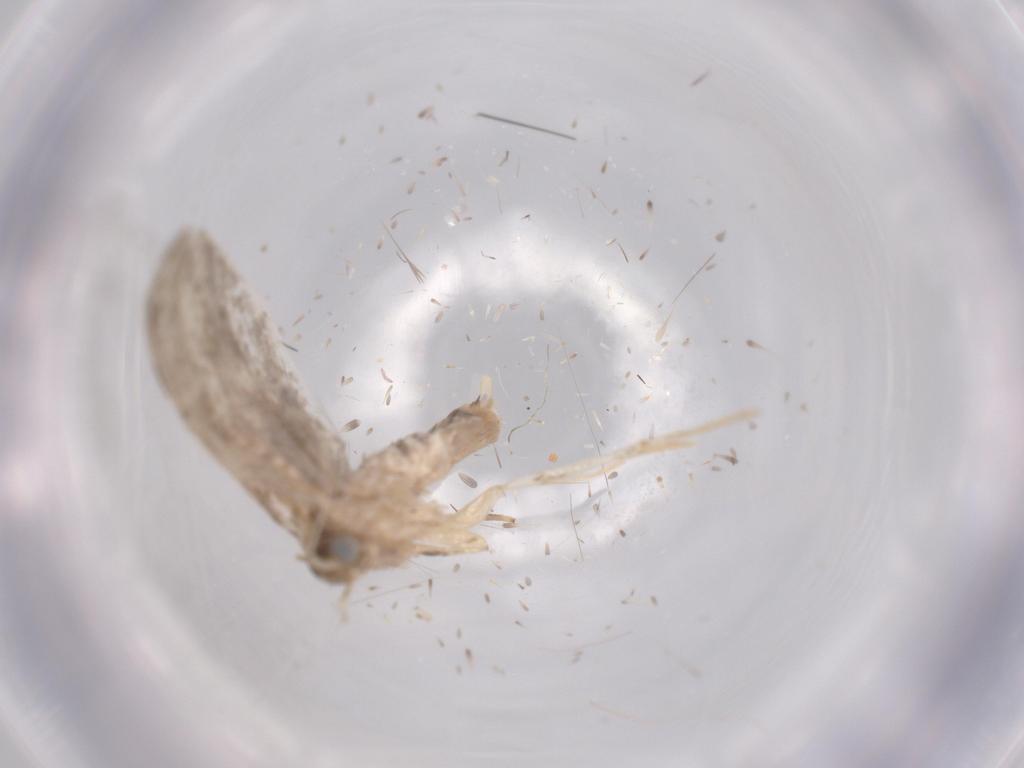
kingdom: Animalia
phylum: Arthropoda
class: Insecta
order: Lepidoptera
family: Tineidae
